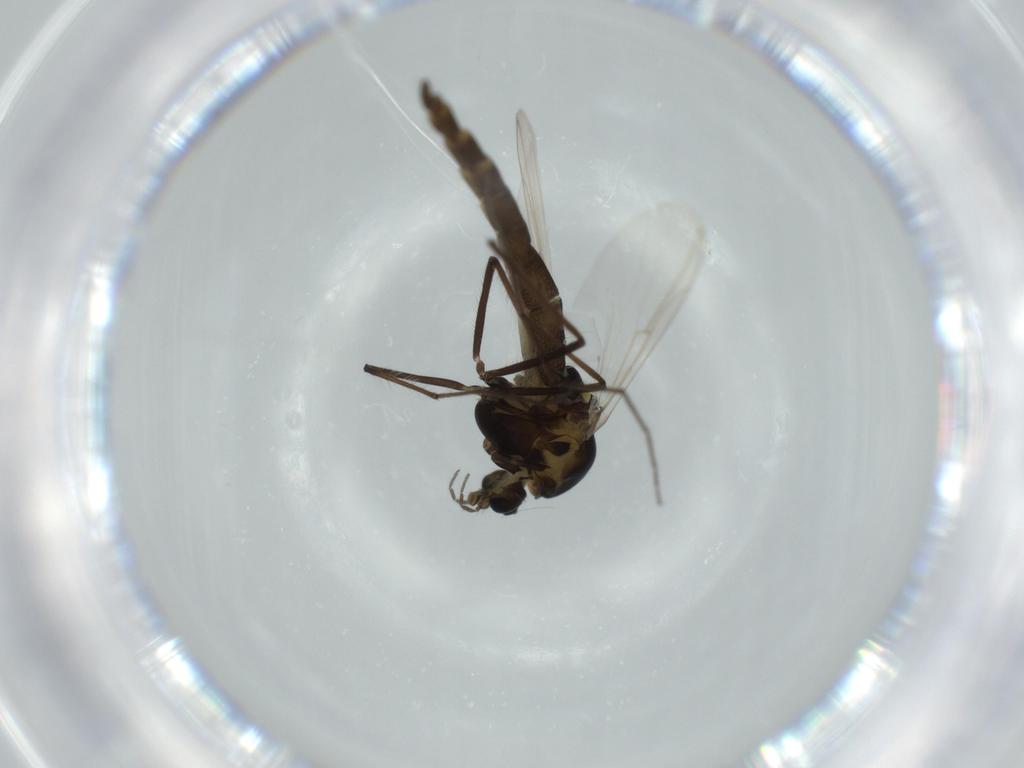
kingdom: Animalia
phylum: Arthropoda
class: Insecta
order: Diptera
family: Chironomidae
